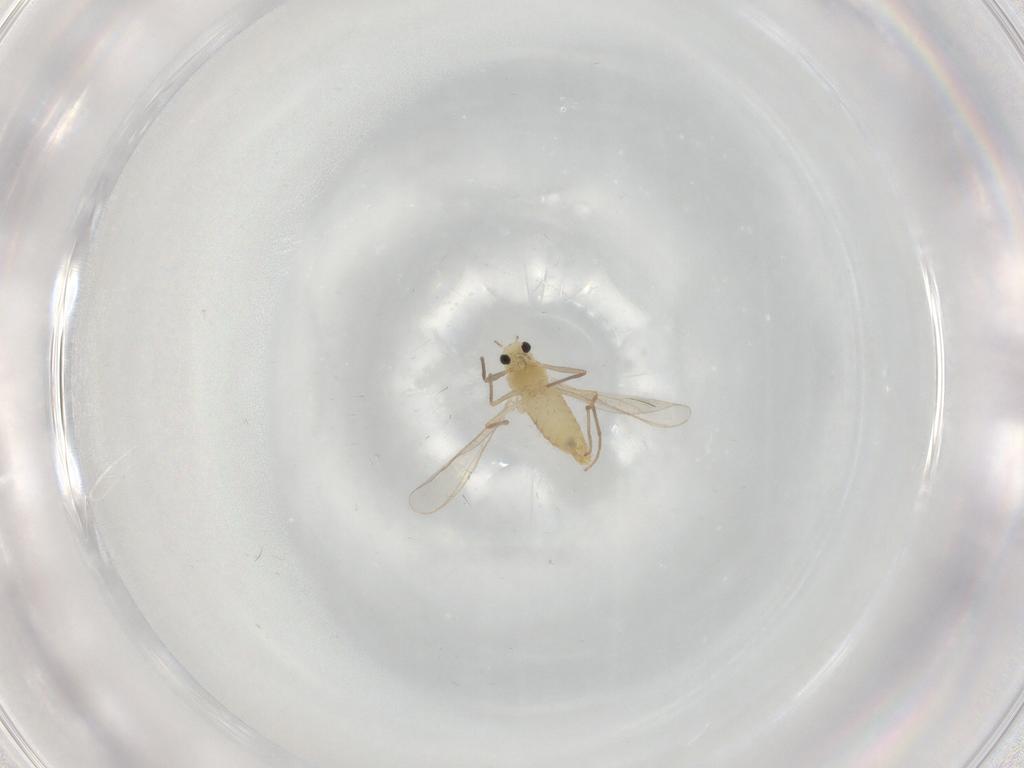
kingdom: Animalia
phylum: Arthropoda
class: Insecta
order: Diptera
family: Chironomidae
